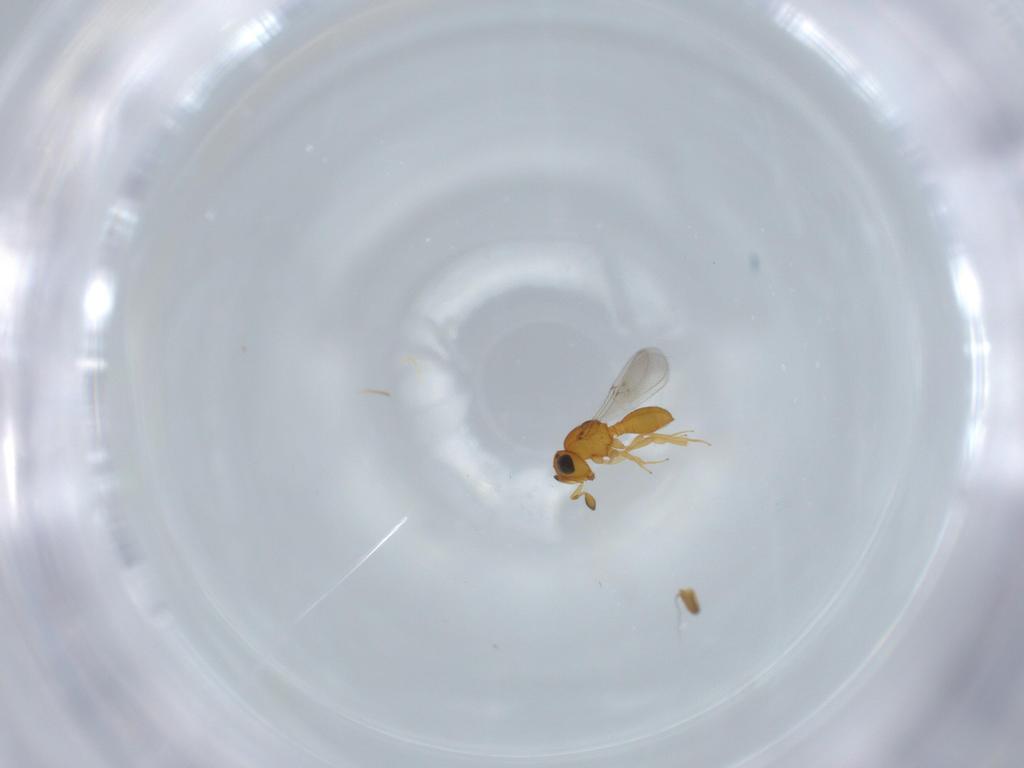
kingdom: Animalia
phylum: Arthropoda
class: Insecta
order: Hymenoptera
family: Scelionidae
